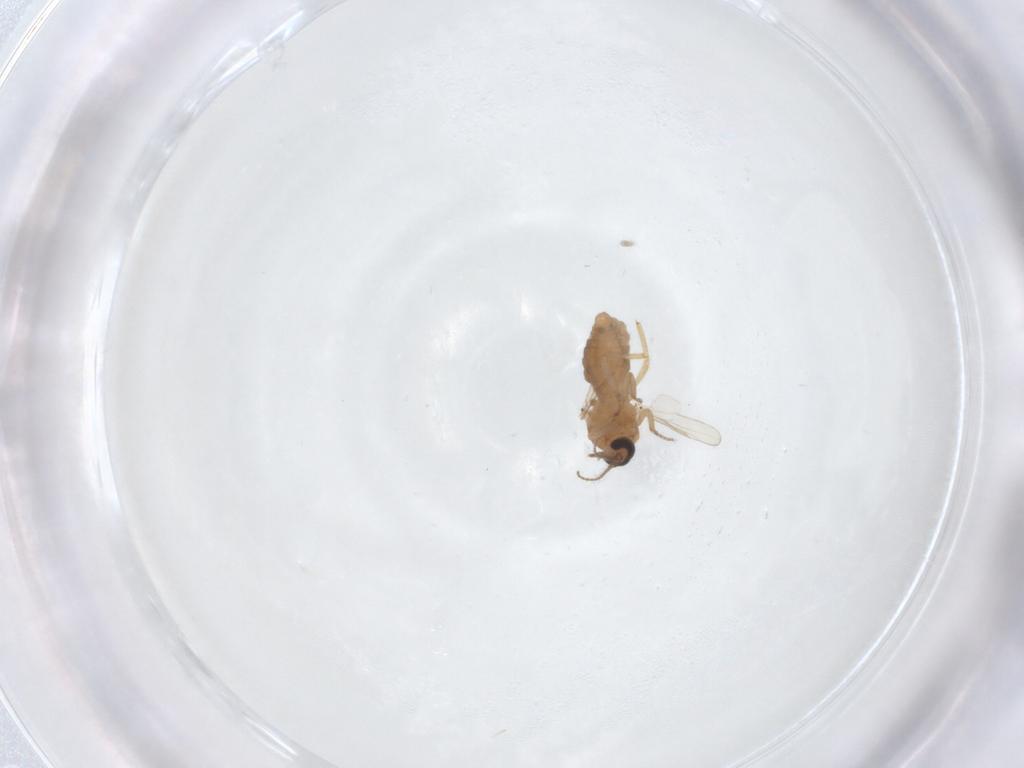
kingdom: Animalia
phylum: Arthropoda
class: Insecta
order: Diptera
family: Ceratopogonidae
